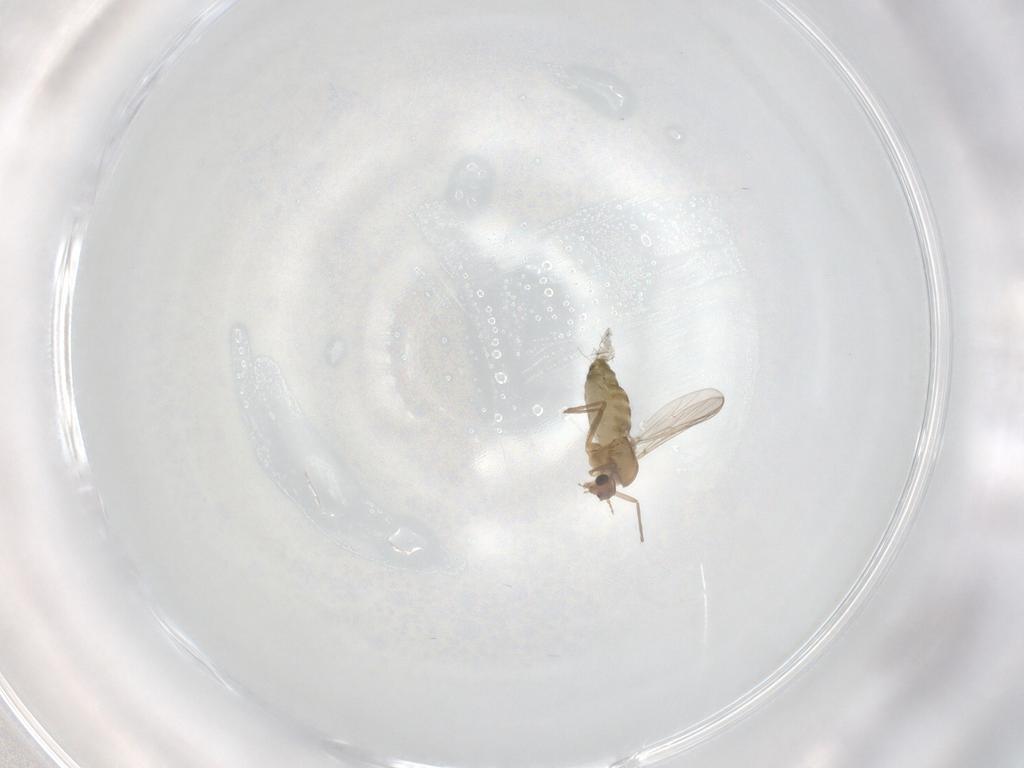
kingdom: Animalia
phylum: Arthropoda
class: Insecta
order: Diptera
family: Chironomidae
